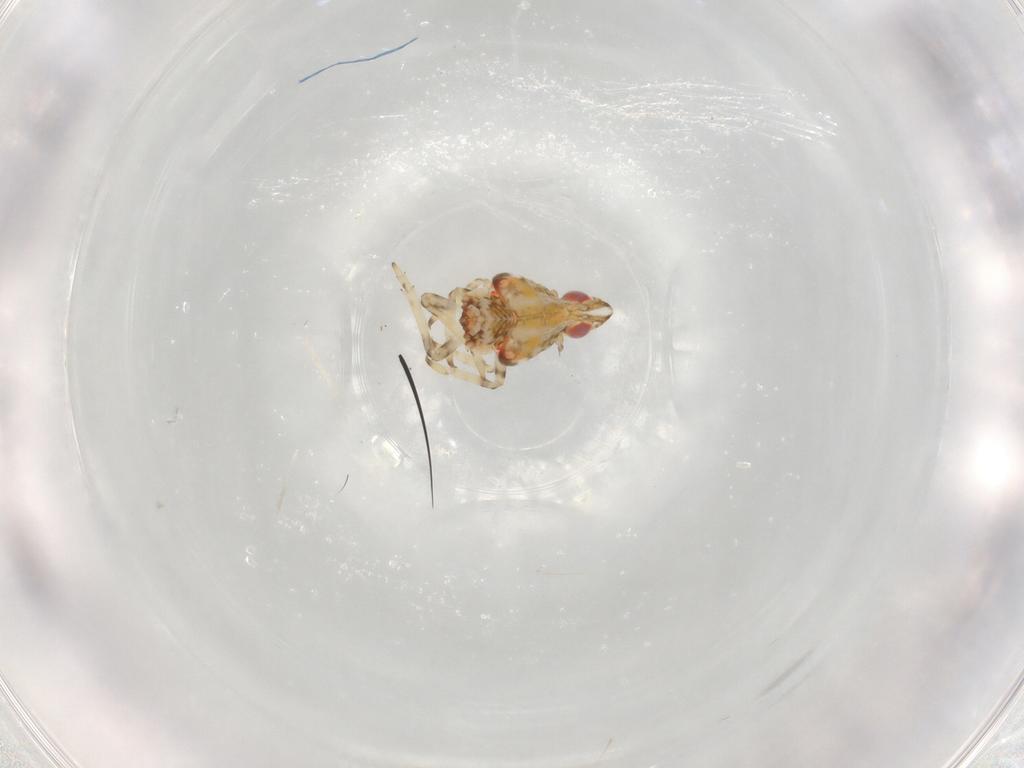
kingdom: Animalia
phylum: Arthropoda
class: Insecta
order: Hemiptera
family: Tropiduchidae
